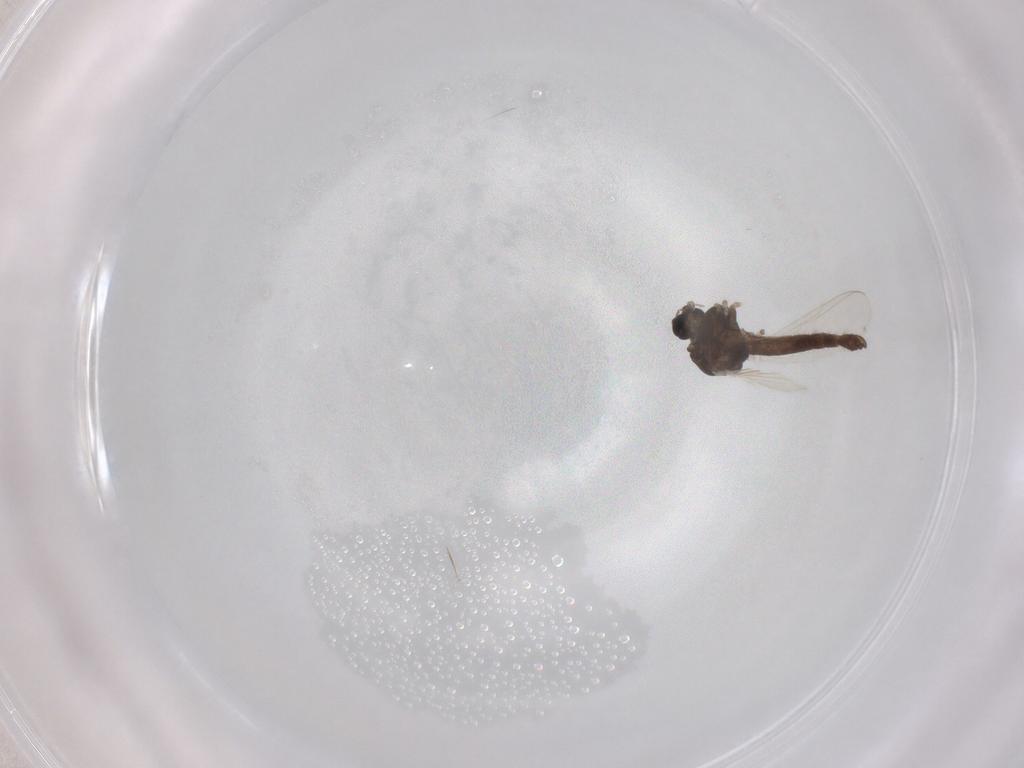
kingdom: Animalia
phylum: Arthropoda
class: Insecta
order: Diptera
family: Chironomidae
